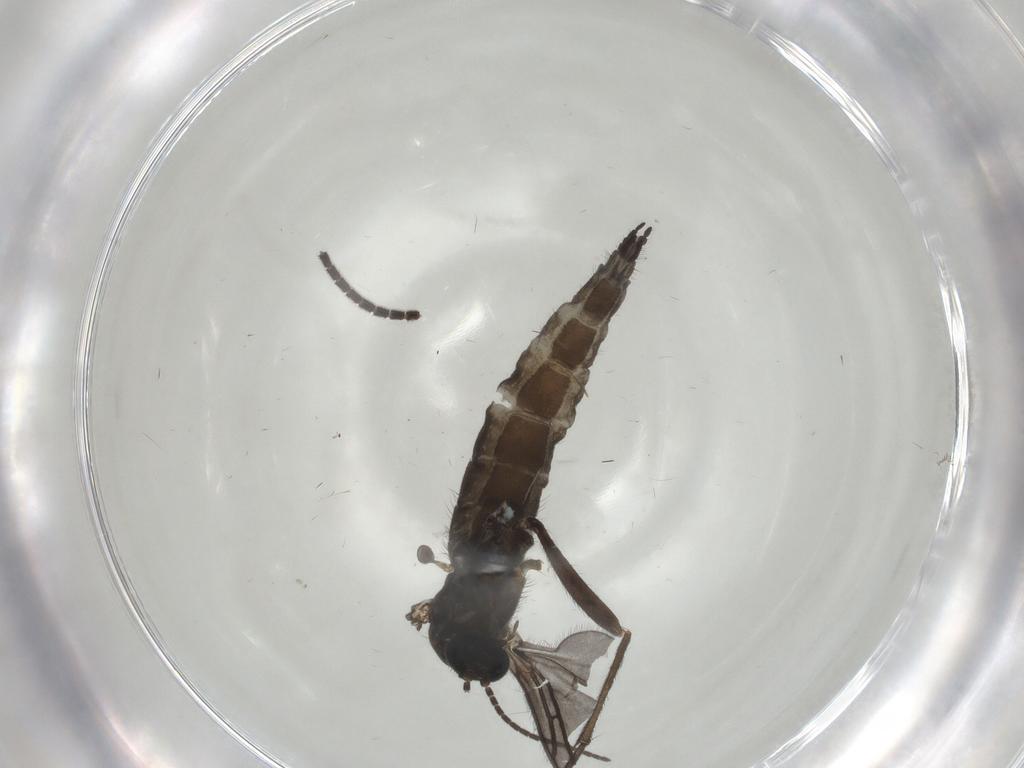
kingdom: Animalia
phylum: Arthropoda
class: Insecta
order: Diptera
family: Sciaridae
